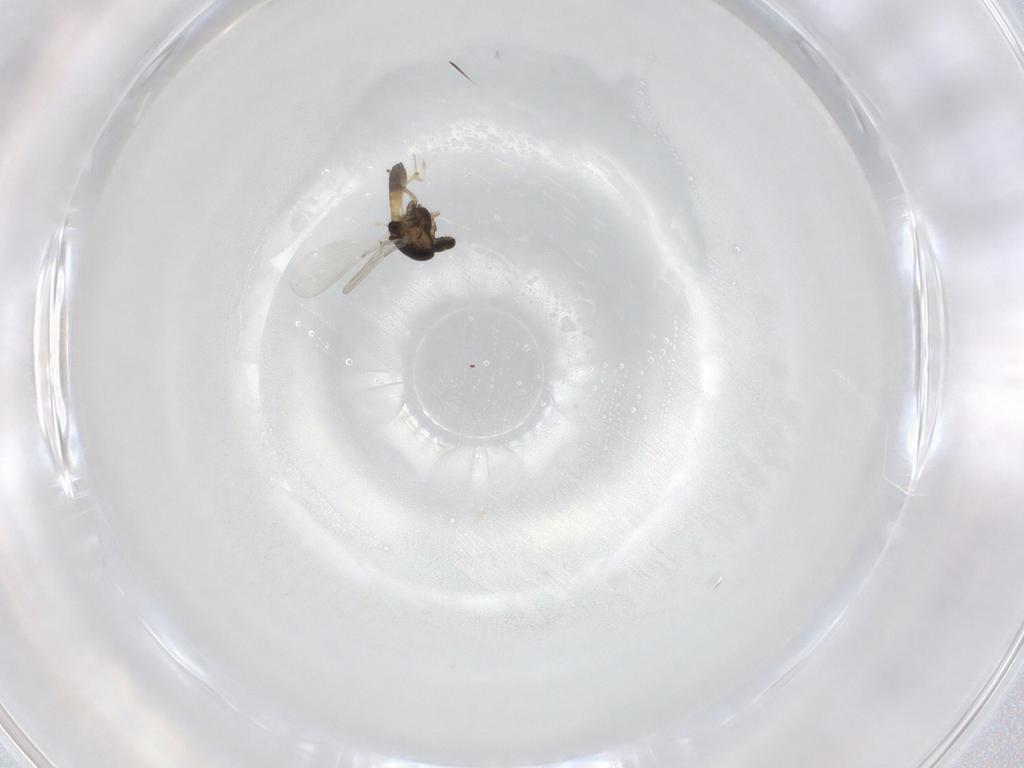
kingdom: Animalia
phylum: Arthropoda
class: Insecta
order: Diptera
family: Chironomidae
